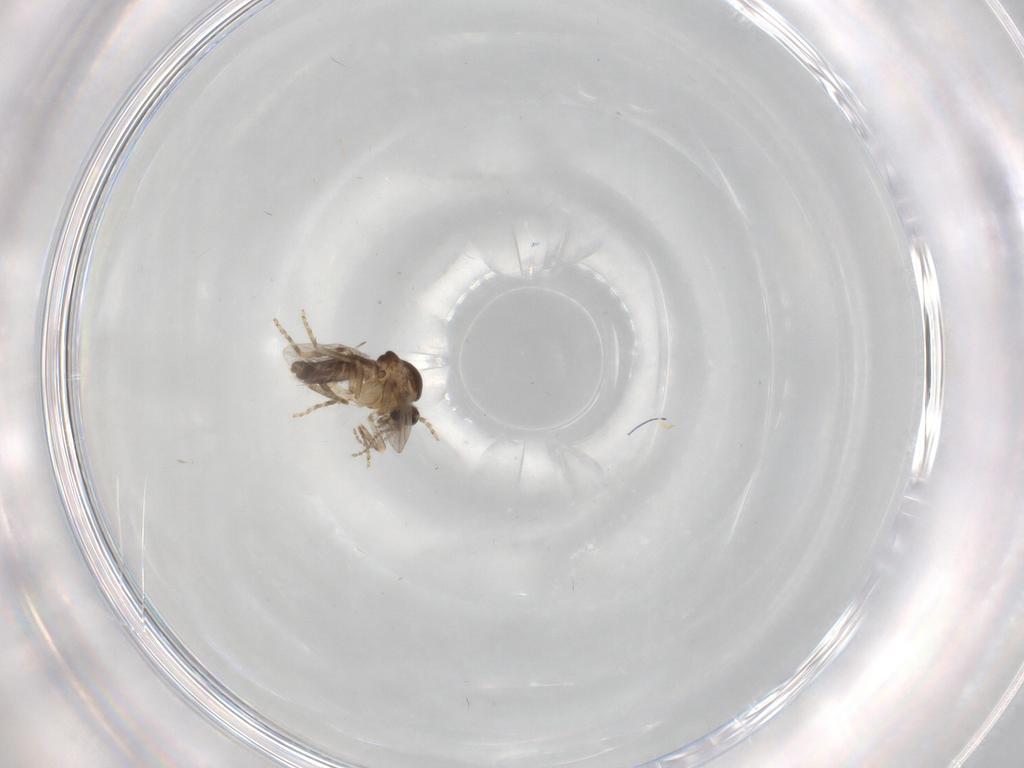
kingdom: Animalia
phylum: Arthropoda
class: Insecta
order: Diptera
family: Ceratopogonidae
